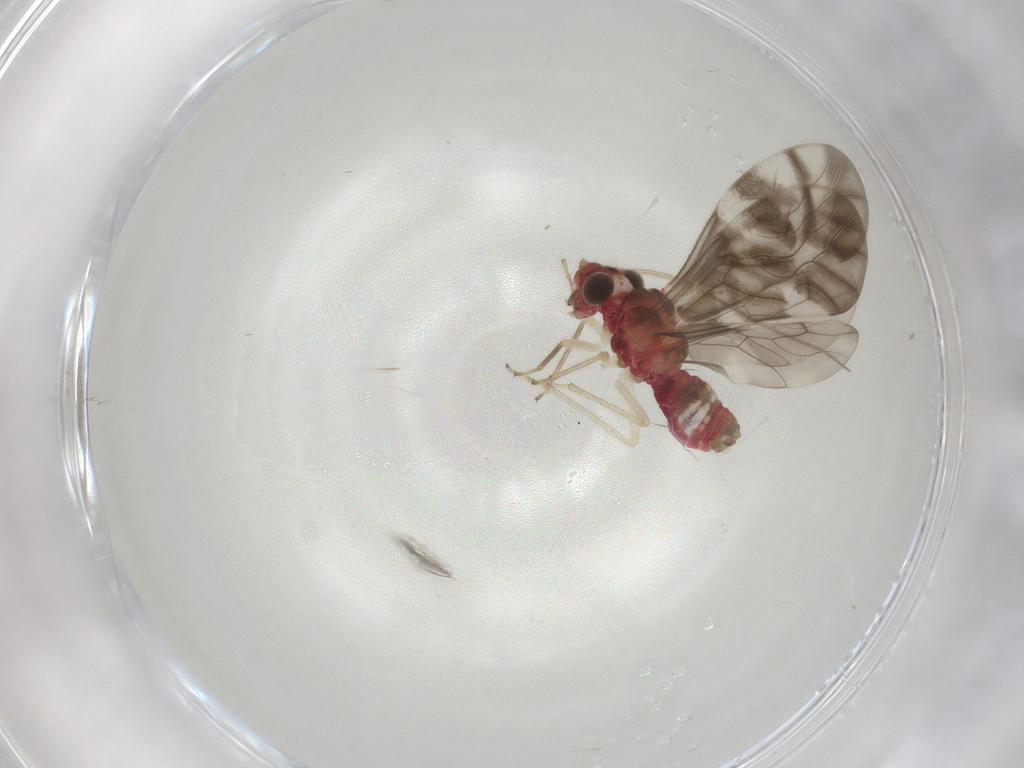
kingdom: Animalia
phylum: Arthropoda
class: Insecta
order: Psocodea
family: Caeciliusidae
